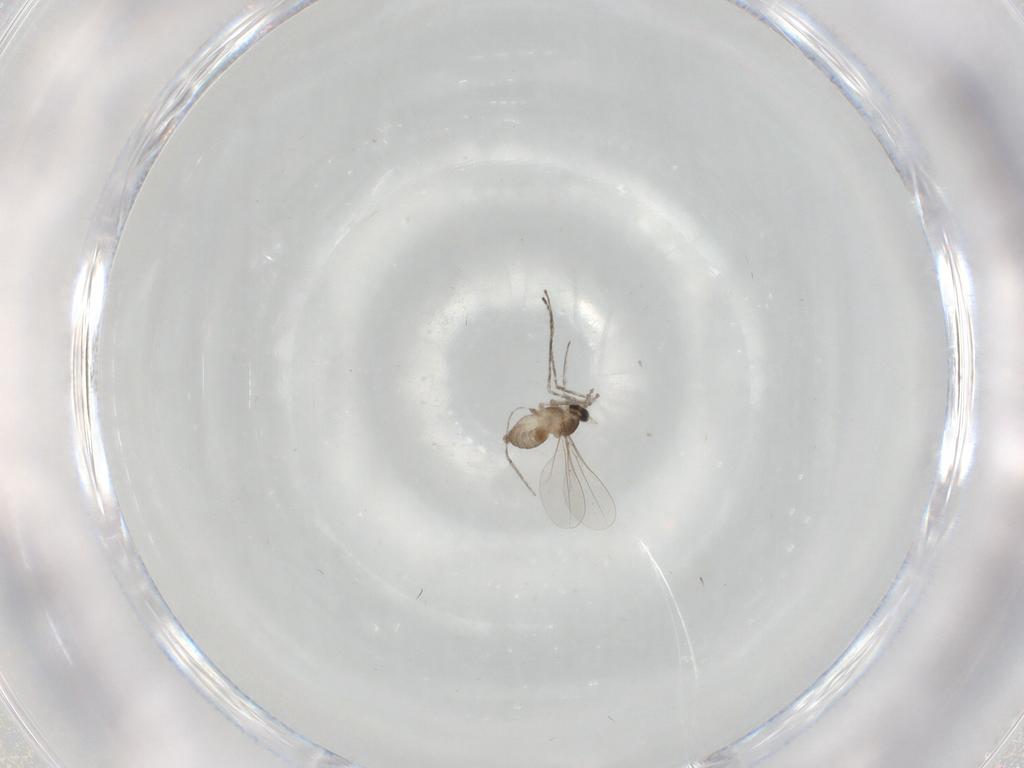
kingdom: Animalia
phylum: Arthropoda
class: Insecta
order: Diptera
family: Cecidomyiidae
